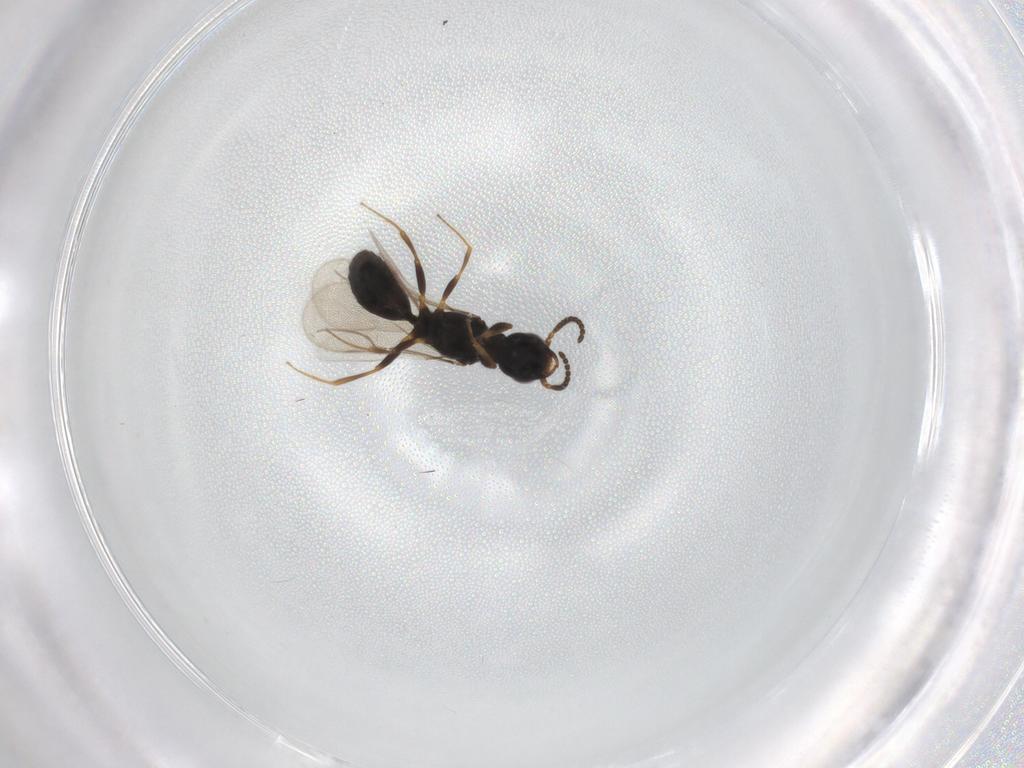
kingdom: Animalia
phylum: Arthropoda
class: Insecta
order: Hymenoptera
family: Bethylidae
